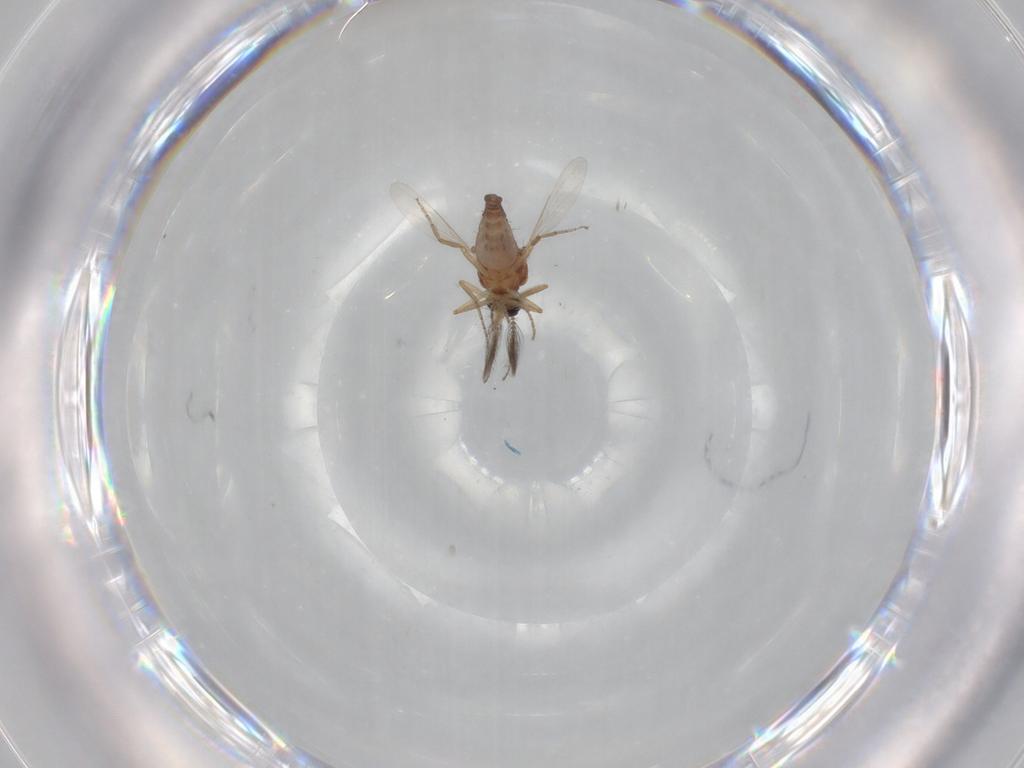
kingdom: Animalia
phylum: Arthropoda
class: Insecta
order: Diptera
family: Ceratopogonidae
